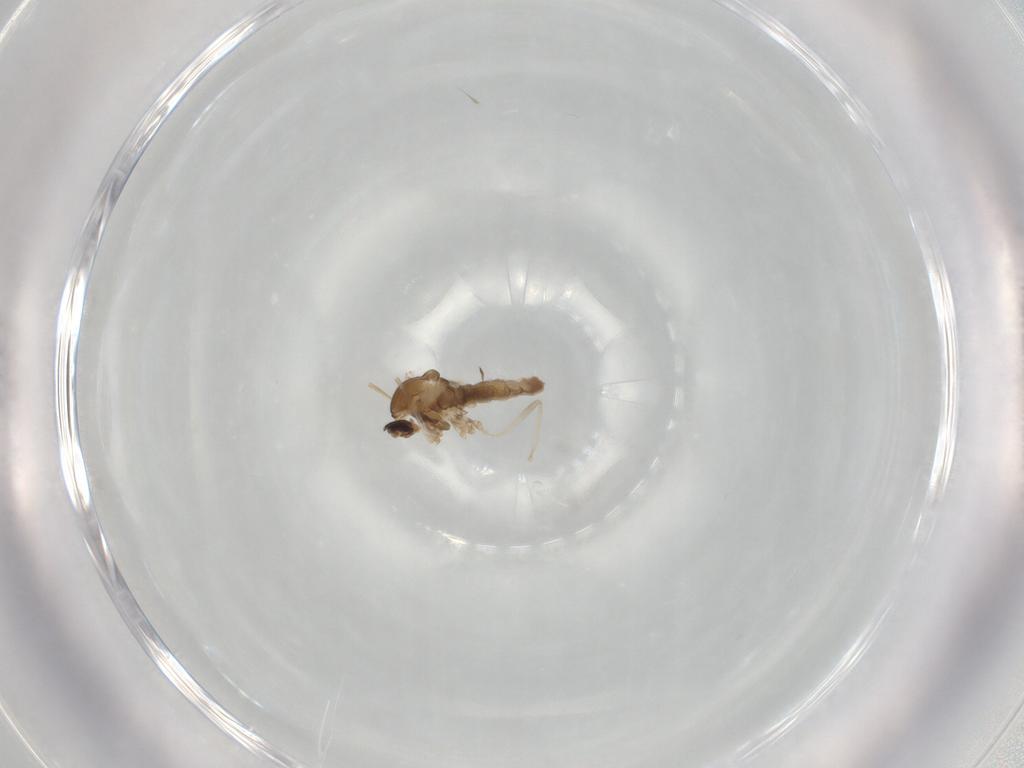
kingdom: Animalia
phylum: Arthropoda
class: Insecta
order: Diptera
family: Cecidomyiidae
